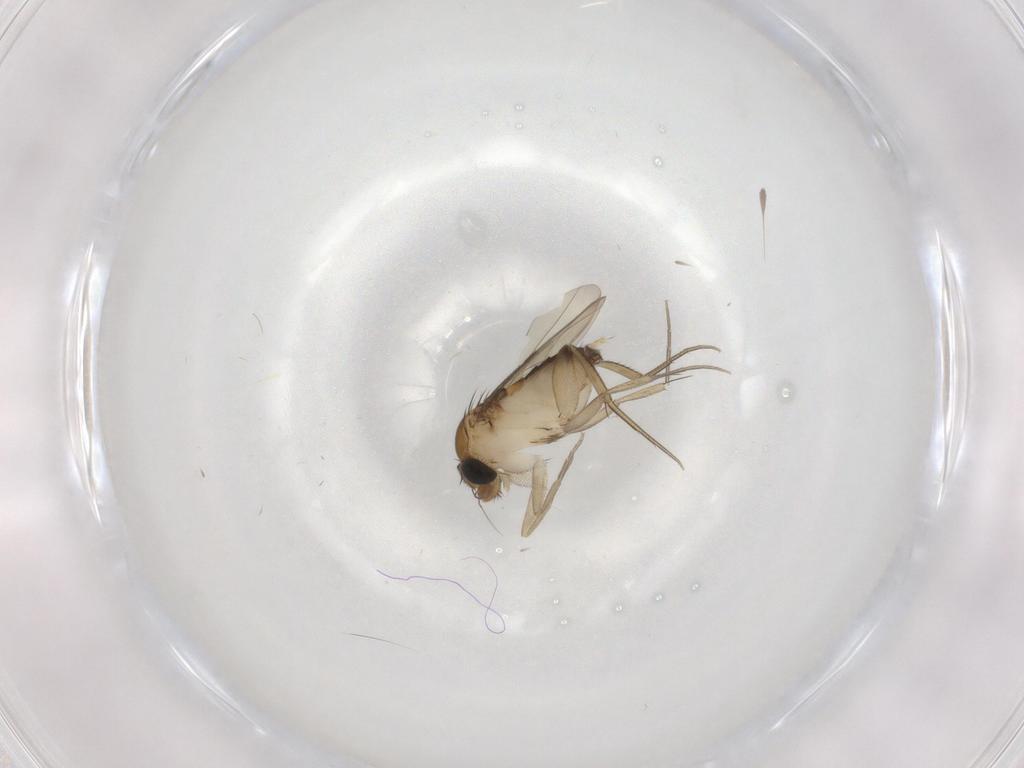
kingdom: Animalia
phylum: Arthropoda
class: Insecta
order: Diptera
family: Phoridae
